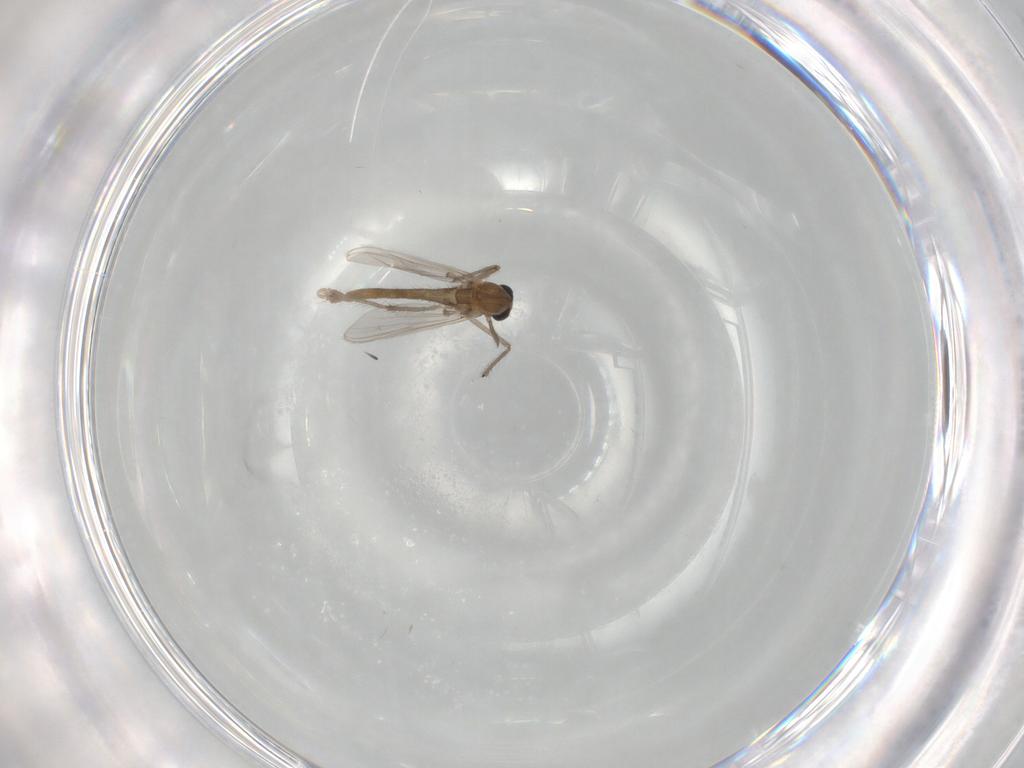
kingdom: Animalia
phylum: Arthropoda
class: Insecta
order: Diptera
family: Chironomidae
